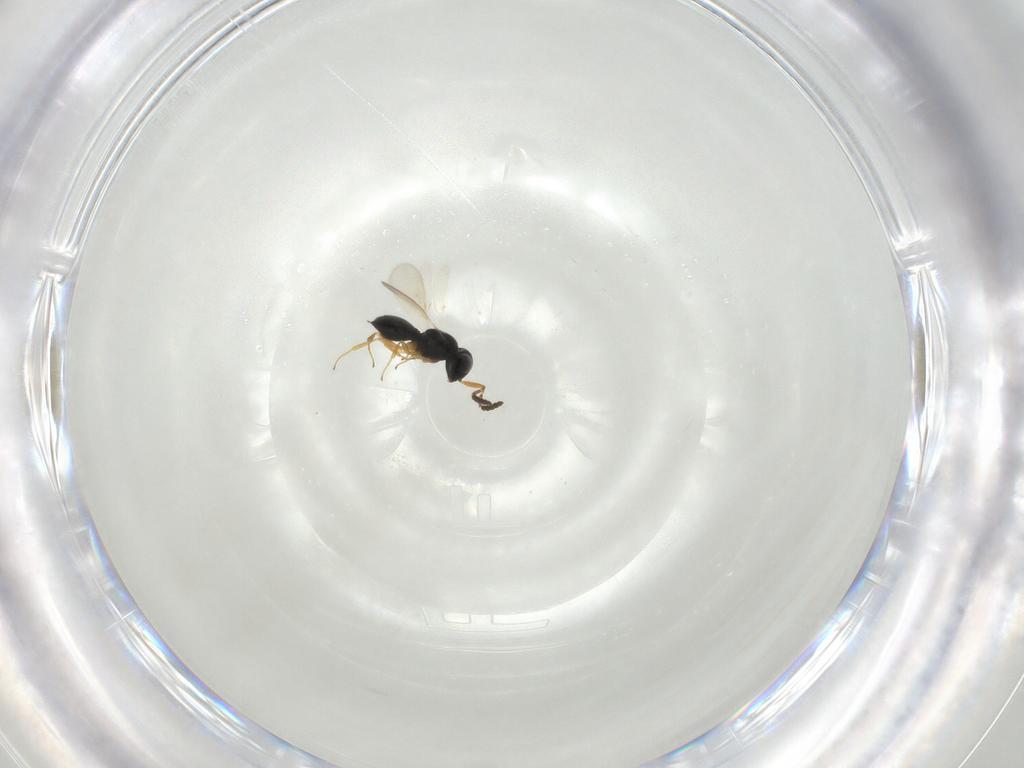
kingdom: Animalia
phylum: Arthropoda
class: Insecta
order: Hymenoptera
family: Scelionidae
